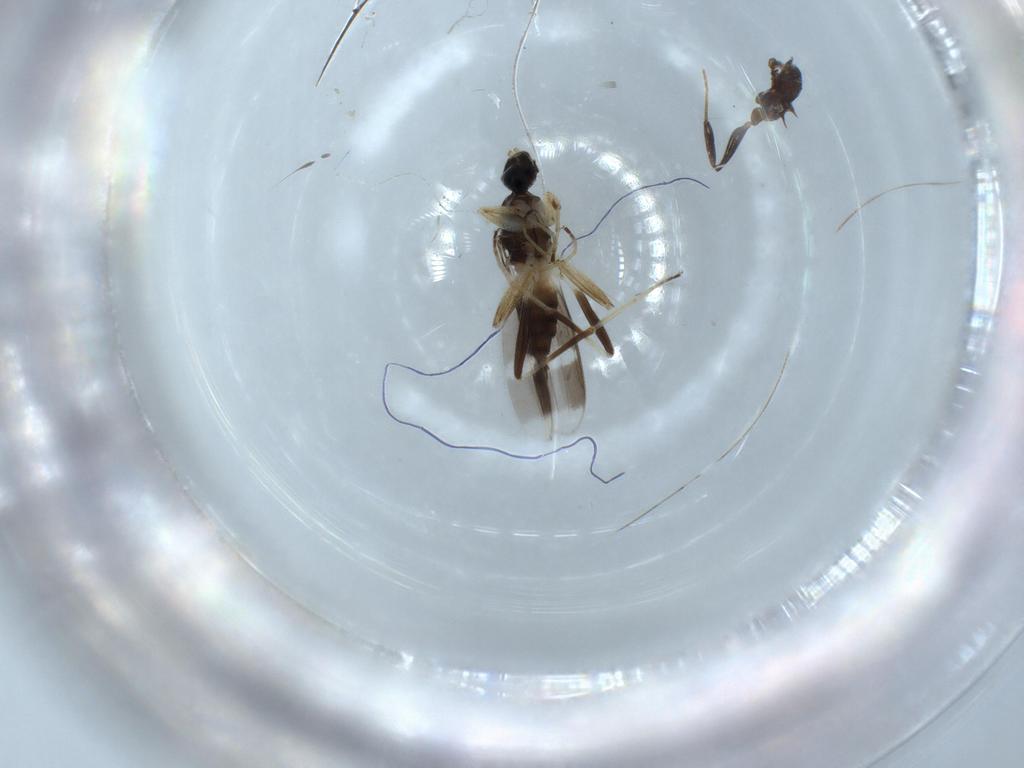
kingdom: Animalia
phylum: Arthropoda
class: Insecta
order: Diptera
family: Hybotidae
